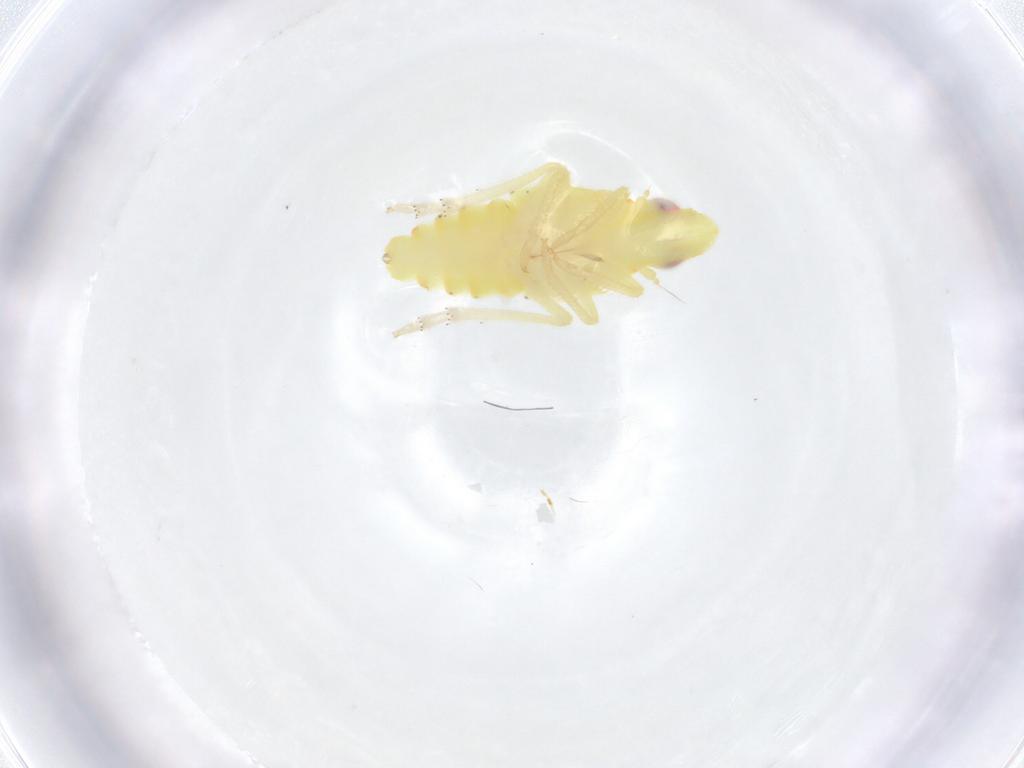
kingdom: Animalia
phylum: Arthropoda
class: Insecta
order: Hemiptera
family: Tropiduchidae
